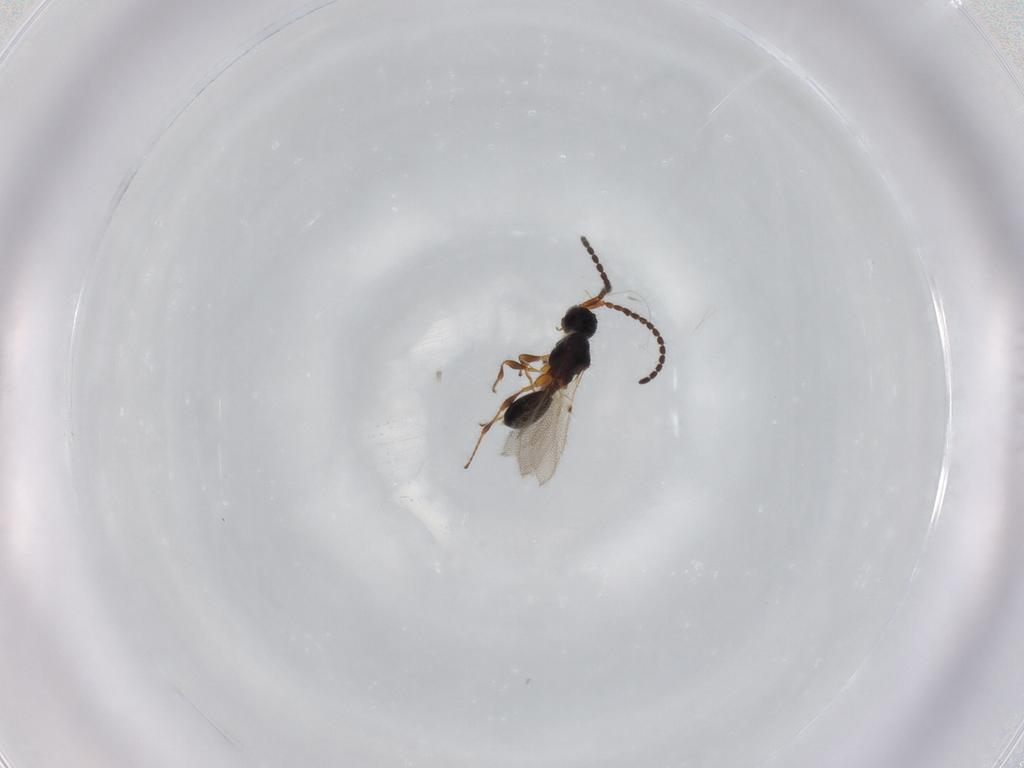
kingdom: Animalia
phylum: Arthropoda
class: Insecta
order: Hymenoptera
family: Diapriidae
